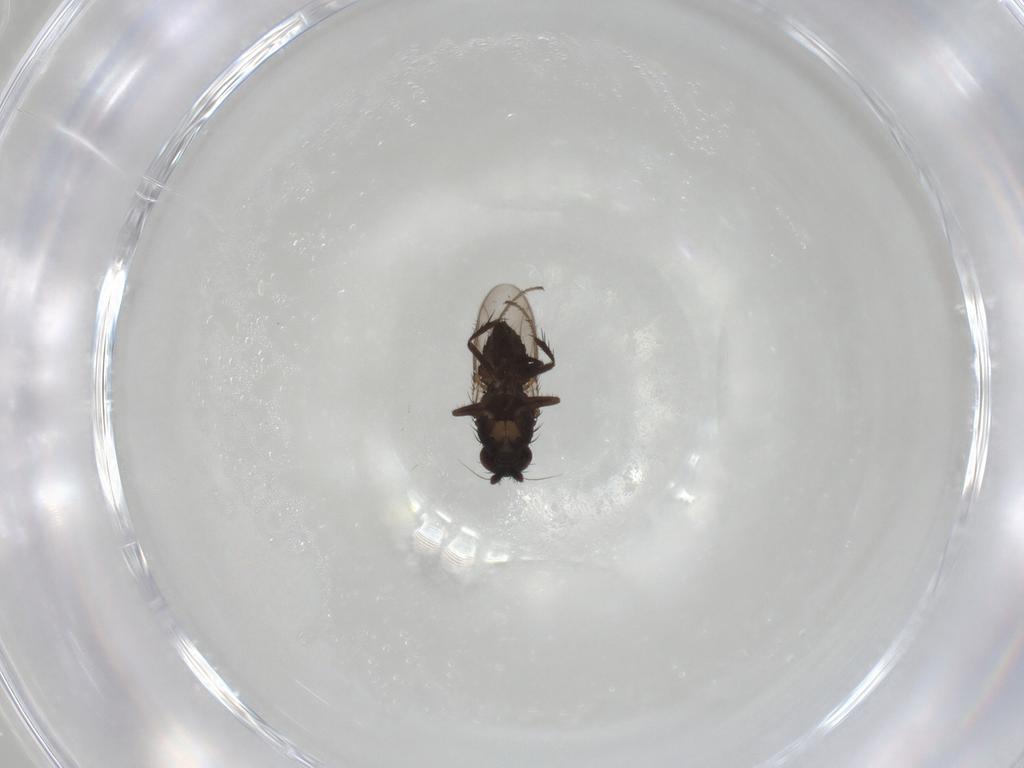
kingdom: Animalia
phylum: Arthropoda
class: Insecta
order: Diptera
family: Sphaeroceridae
